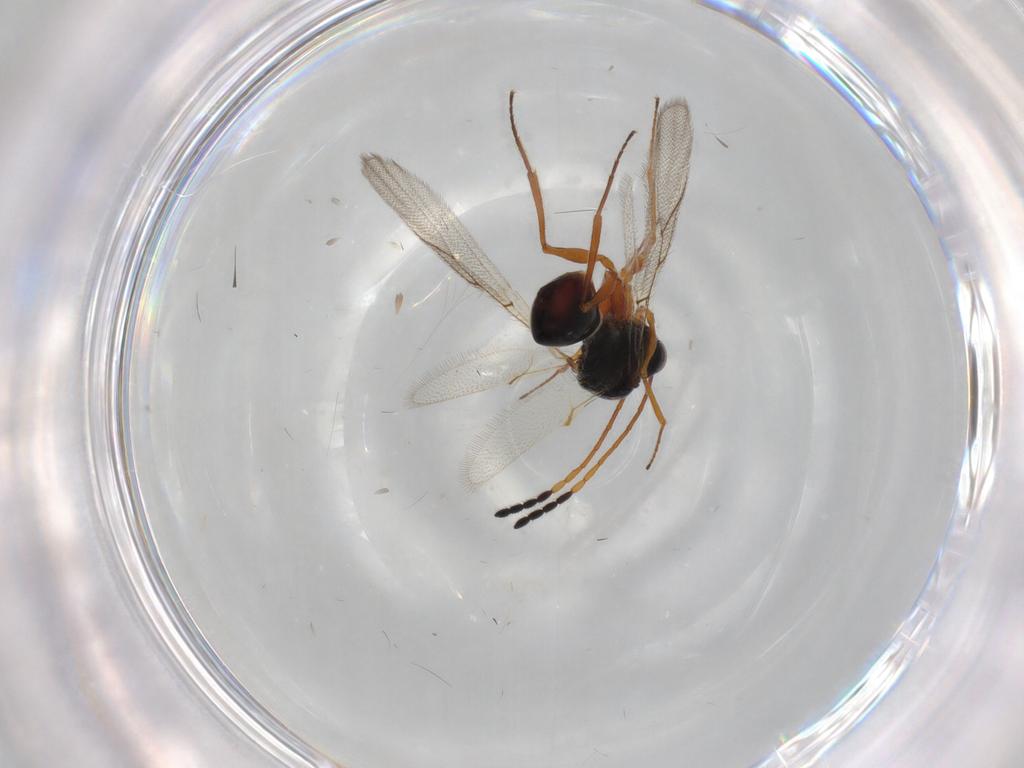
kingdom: Animalia
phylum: Arthropoda
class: Insecta
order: Hymenoptera
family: Figitidae
